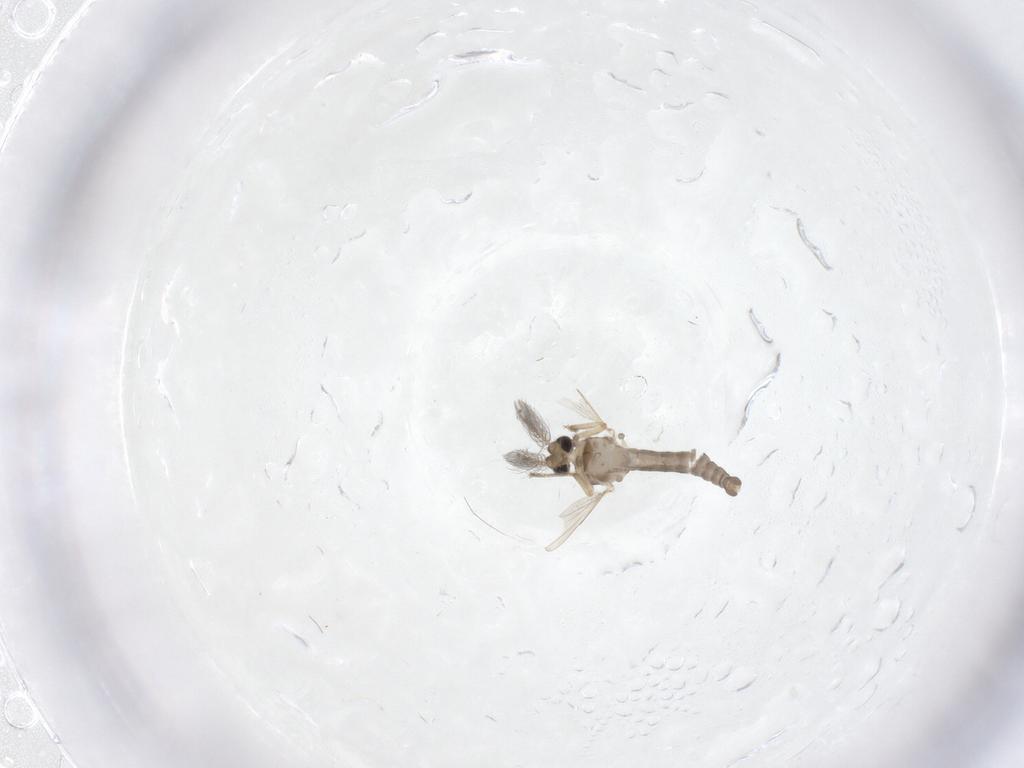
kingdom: Animalia
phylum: Arthropoda
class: Insecta
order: Diptera
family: Ceratopogonidae
